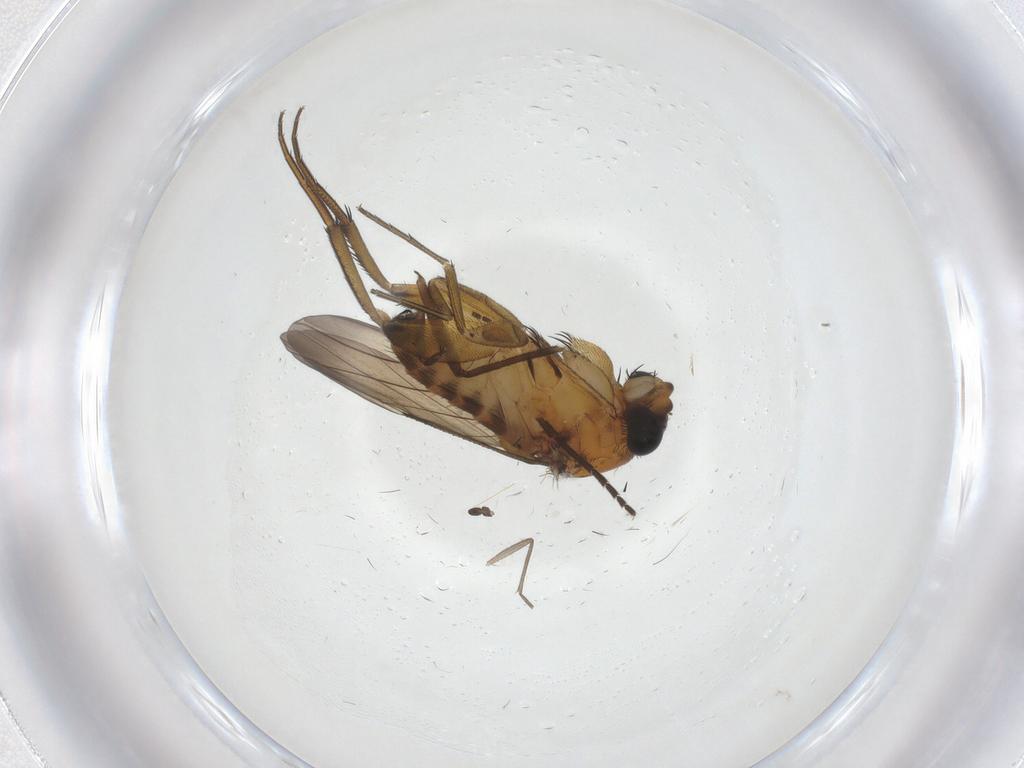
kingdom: Animalia
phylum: Arthropoda
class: Insecta
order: Diptera
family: Phoridae
